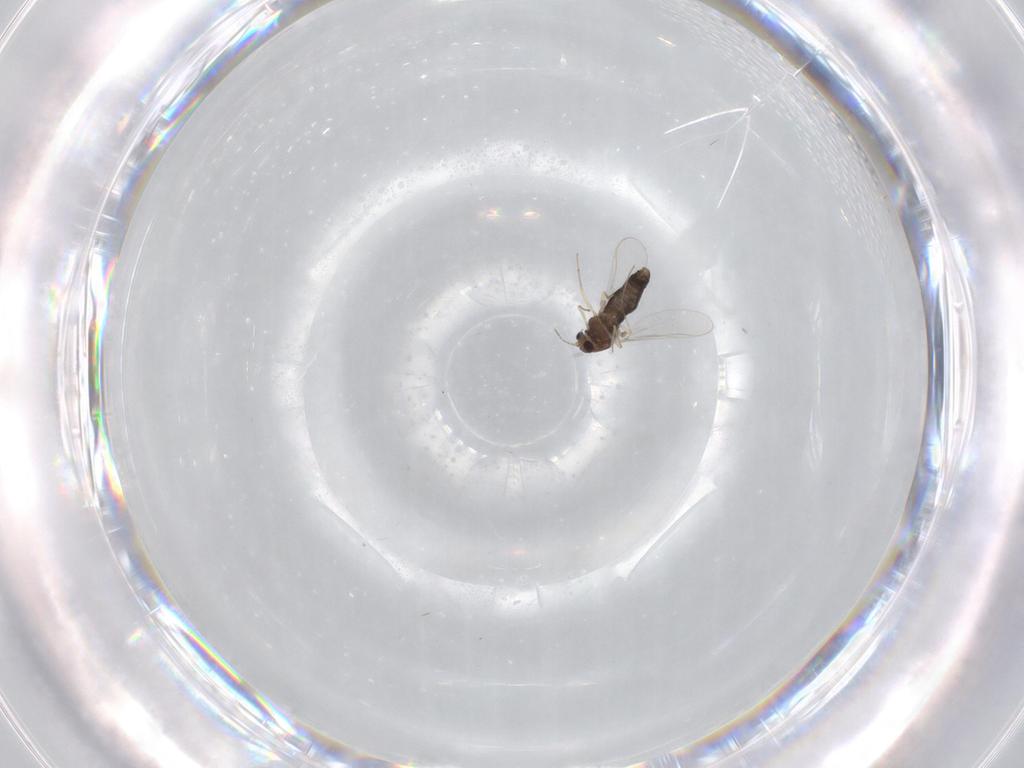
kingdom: Animalia
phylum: Arthropoda
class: Insecta
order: Diptera
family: Chironomidae
